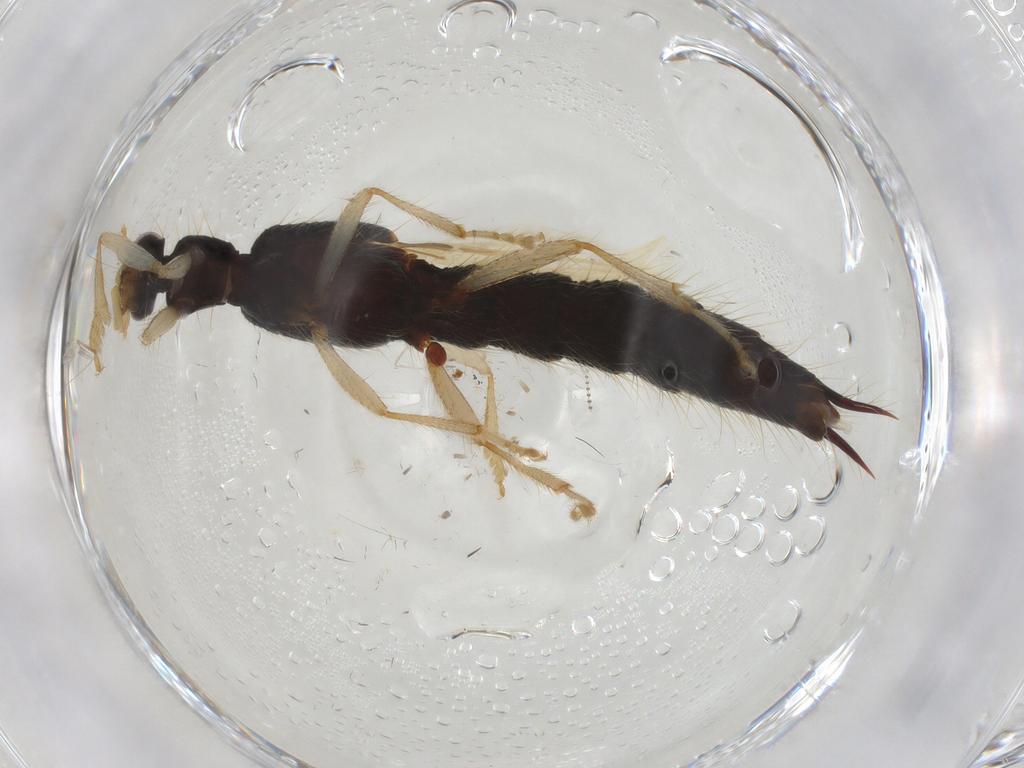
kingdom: Animalia
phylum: Arthropoda
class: Insecta
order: Coleoptera
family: Staphylinidae
